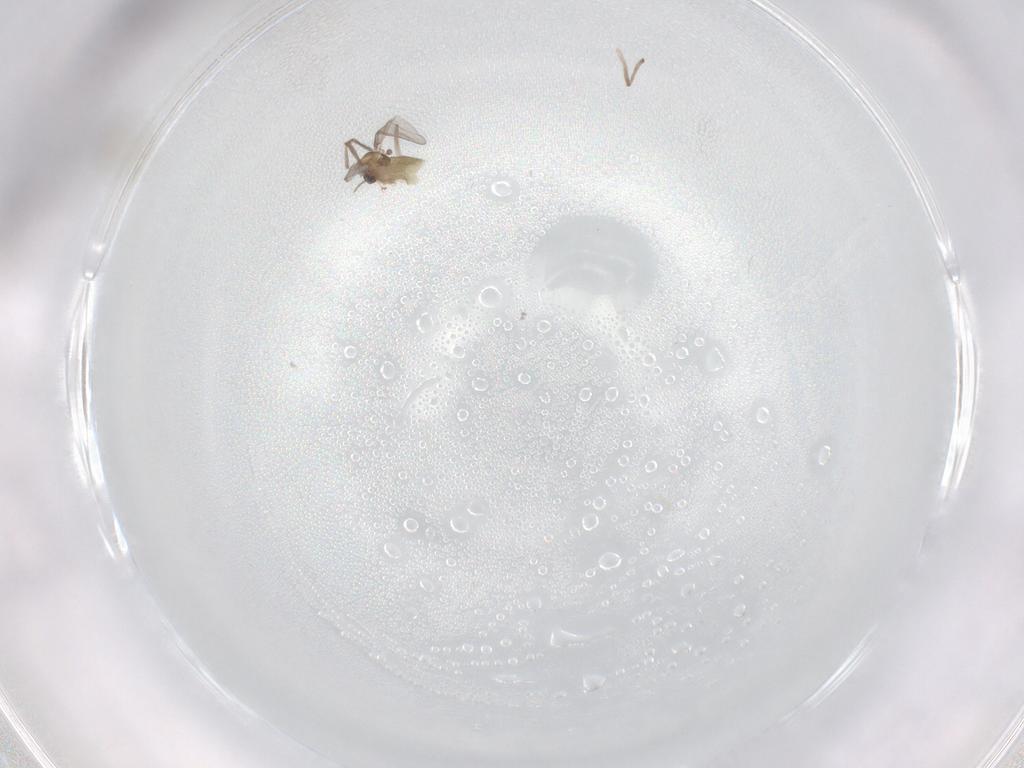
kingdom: Animalia
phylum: Arthropoda
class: Insecta
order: Diptera
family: Chironomidae
